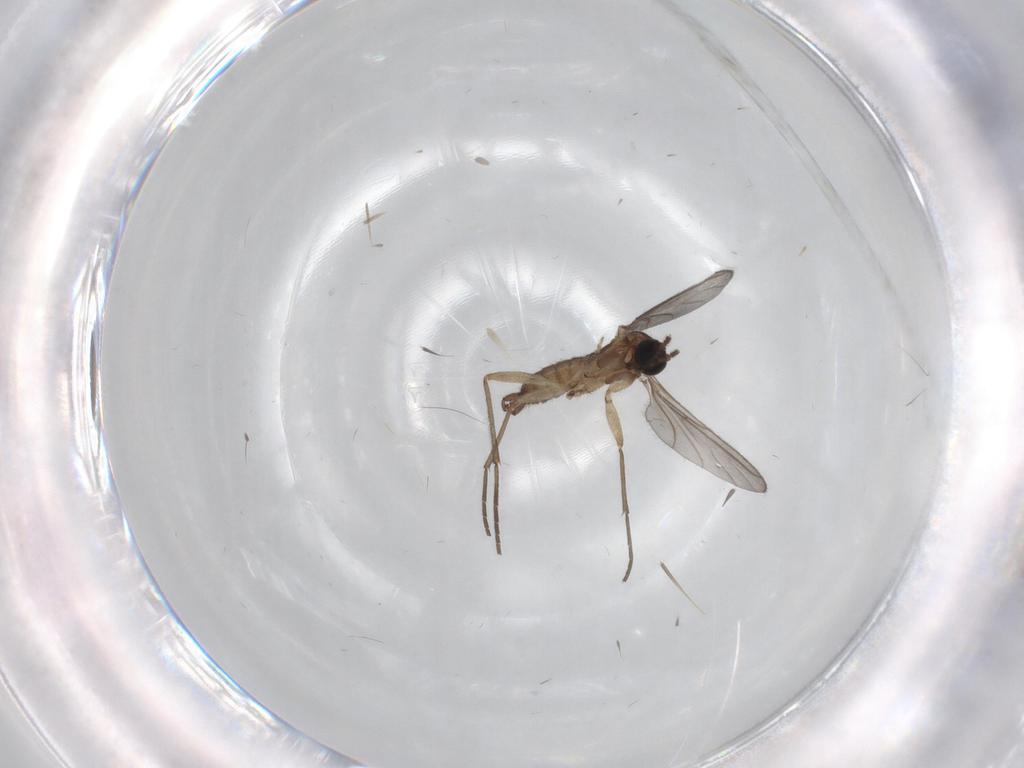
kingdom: Animalia
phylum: Arthropoda
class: Insecta
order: Diptera
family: Sciaridae
